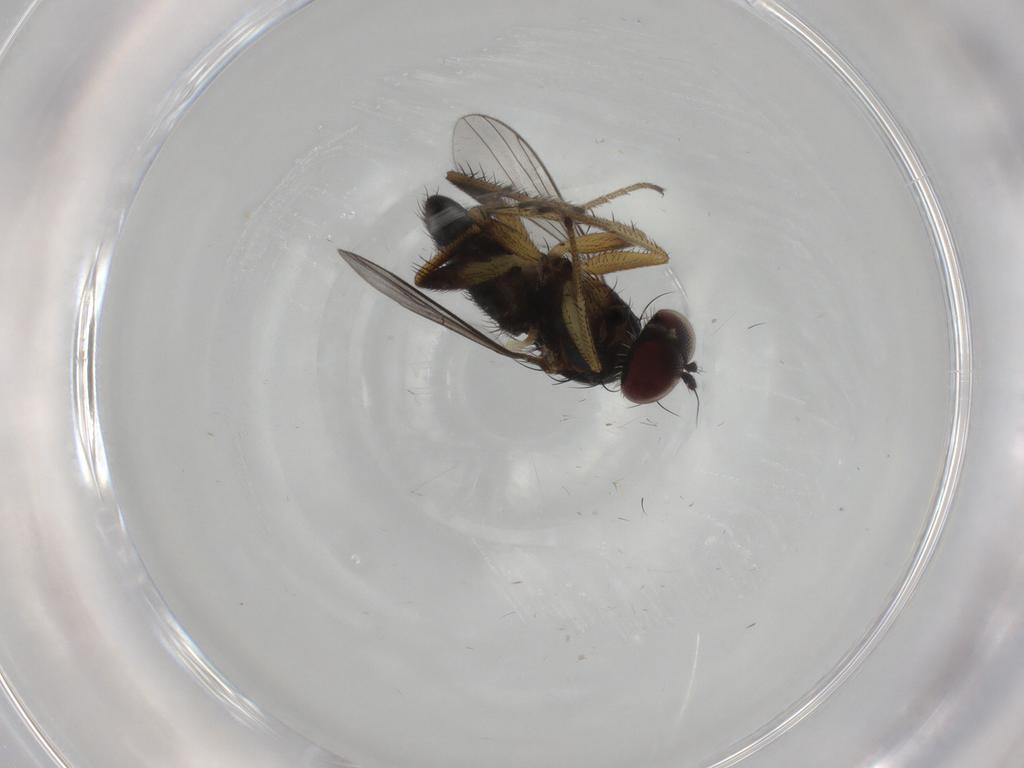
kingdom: Animalia
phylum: Arthropoda
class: Insecta
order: Diptera
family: Dolichopodidae
